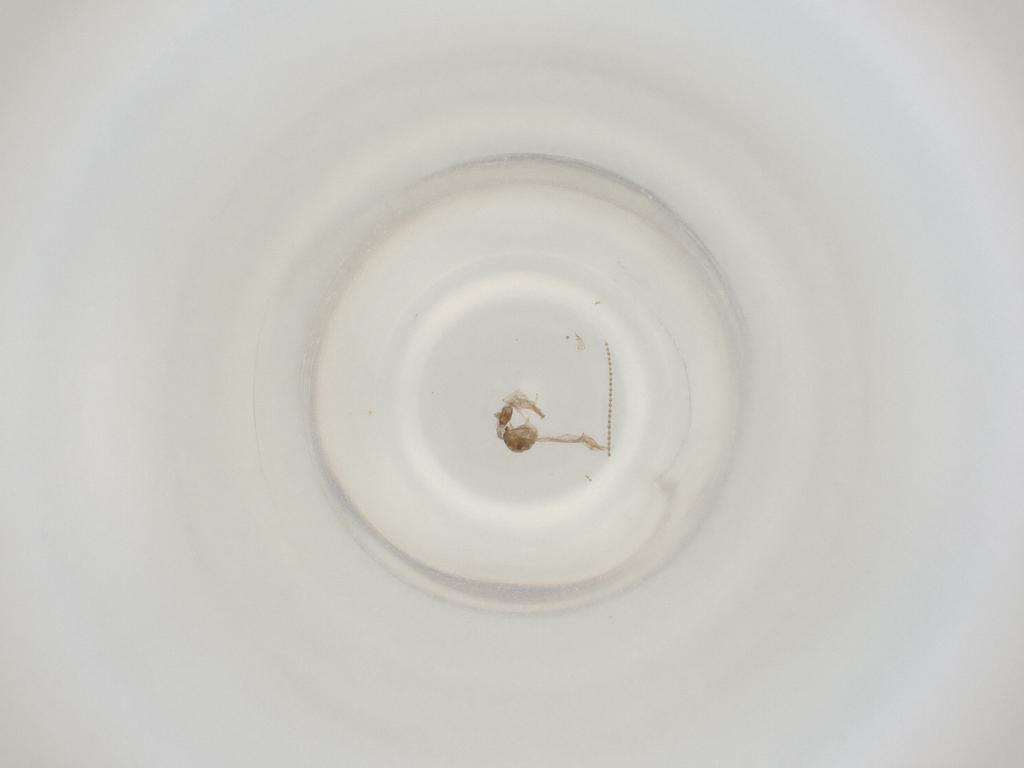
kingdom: Animalia
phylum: Arthropoda
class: Insecta
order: Diptera
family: Cecidomyiidae
